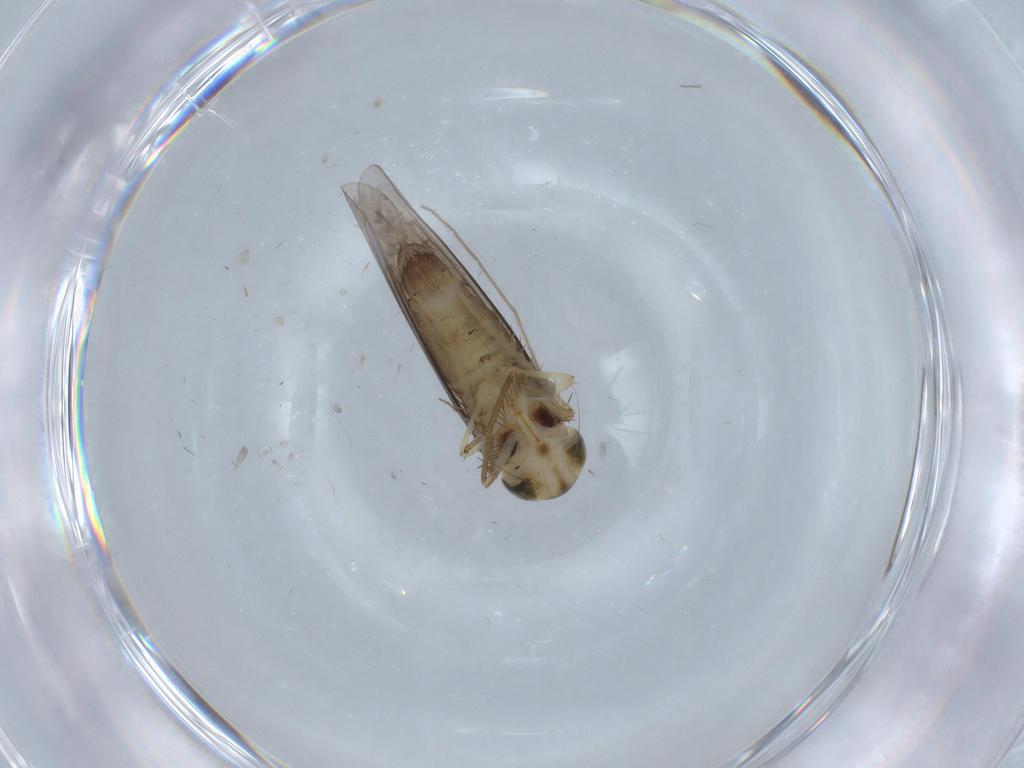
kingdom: Animalia
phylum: Arthropoda
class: Insecta
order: Hemiptera
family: Cicadellidae
